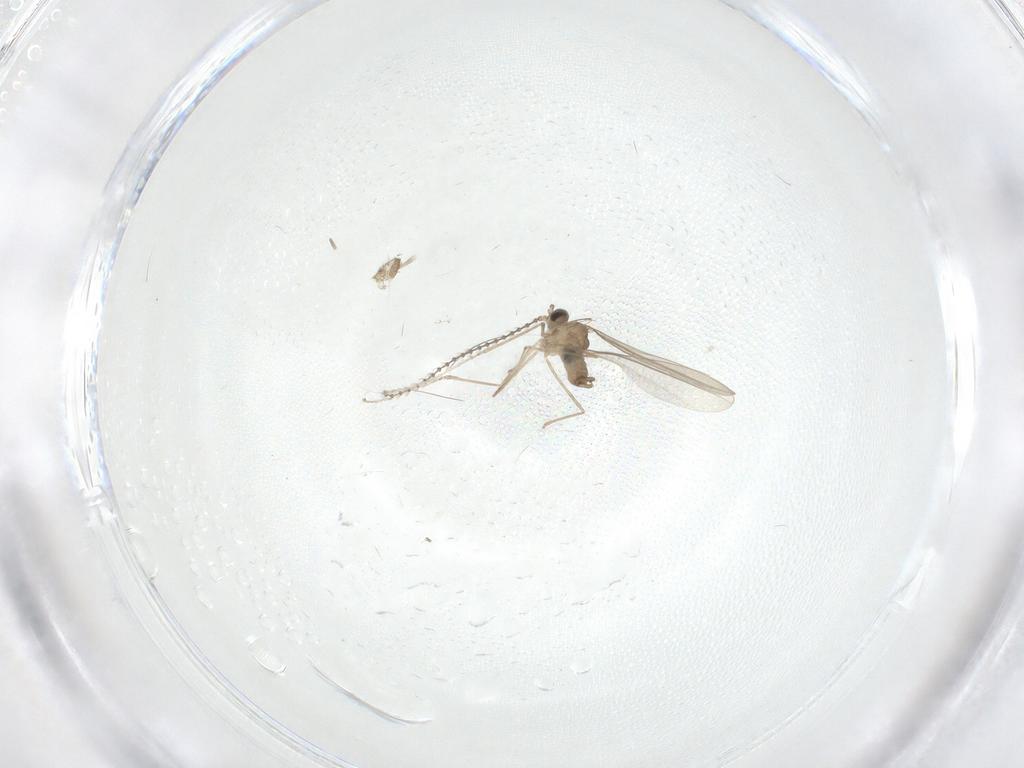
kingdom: Animalia
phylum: Arthropoda
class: Insecta
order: Diptera
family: Cecidomyiidae
